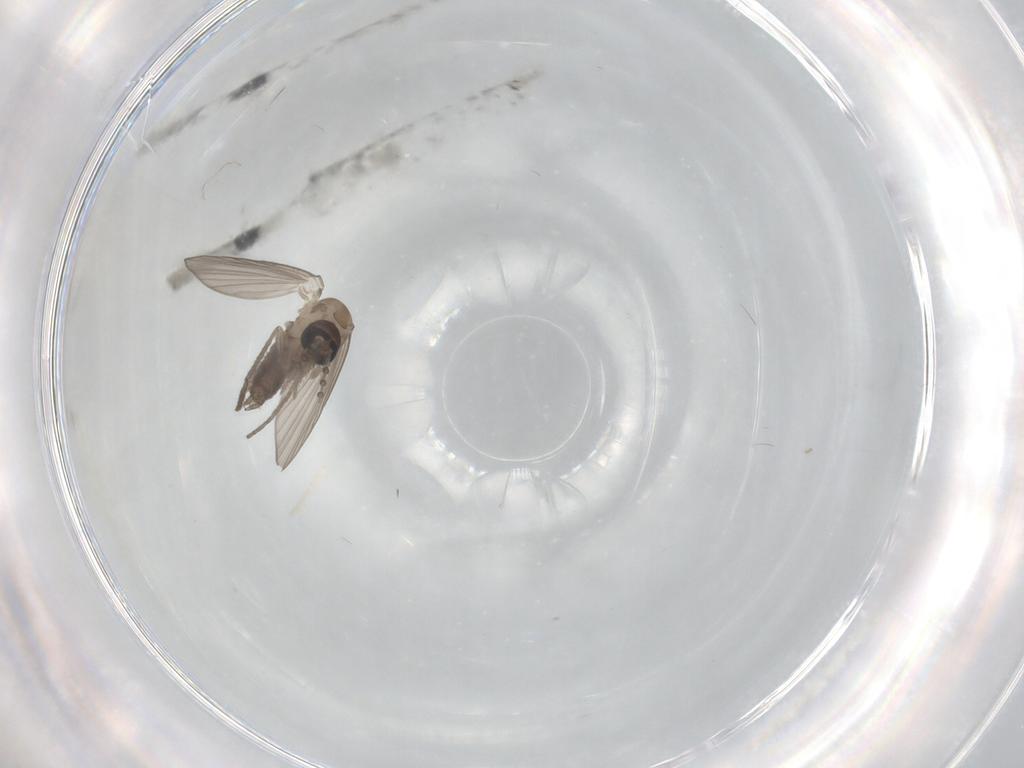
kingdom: Animalia
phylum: Arthropoda
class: Insecta
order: Diptera
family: Psychodidae
